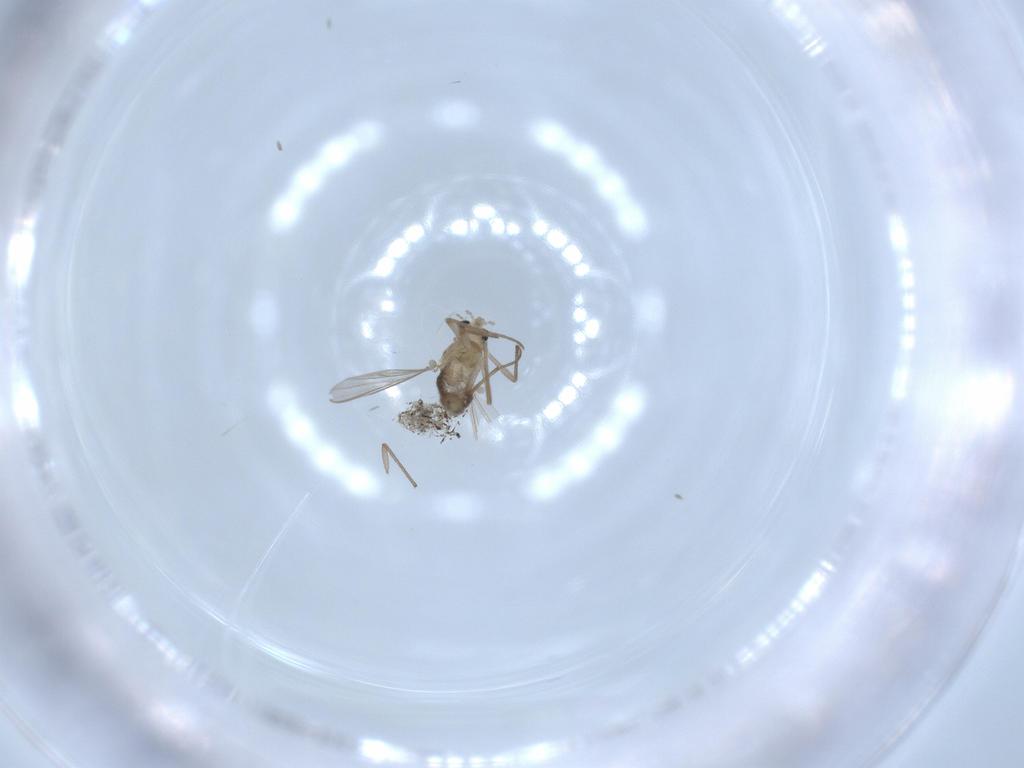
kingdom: Animalia
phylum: Arthropoda
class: Insecta
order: Diptera
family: Chironomidae
